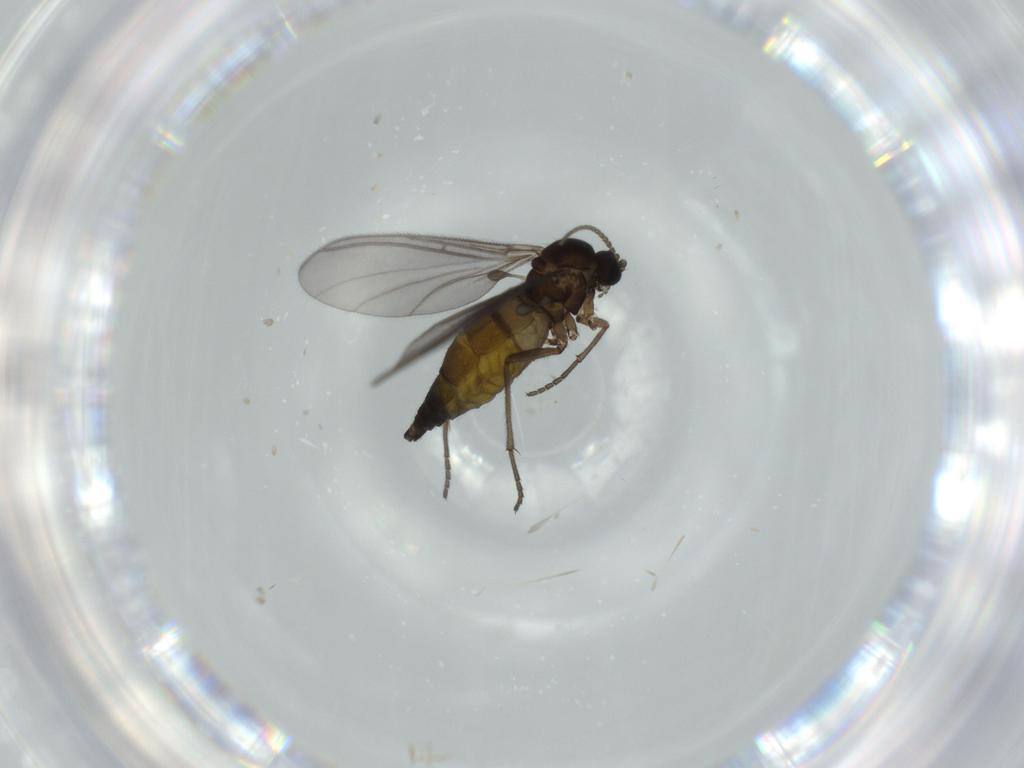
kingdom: Animalia
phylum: Arthropoda
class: Insecta
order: Diptera
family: Sciaridae
